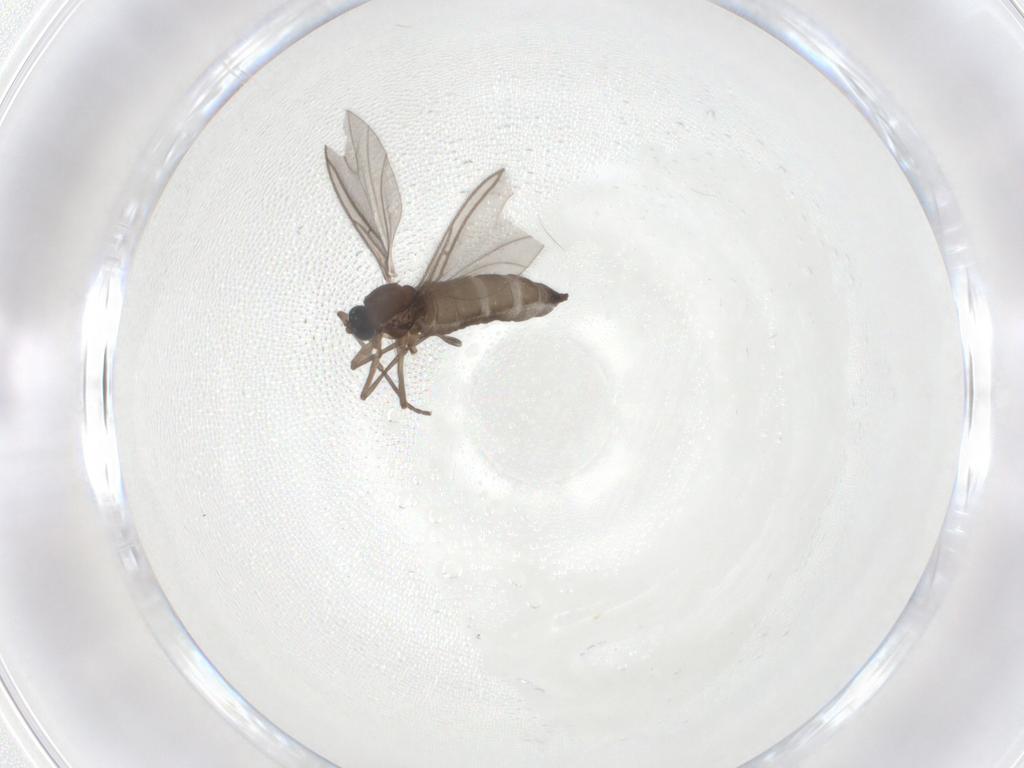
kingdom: Animalia
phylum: Arthropoda
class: Insecta
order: Diptera
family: Sciaridae
